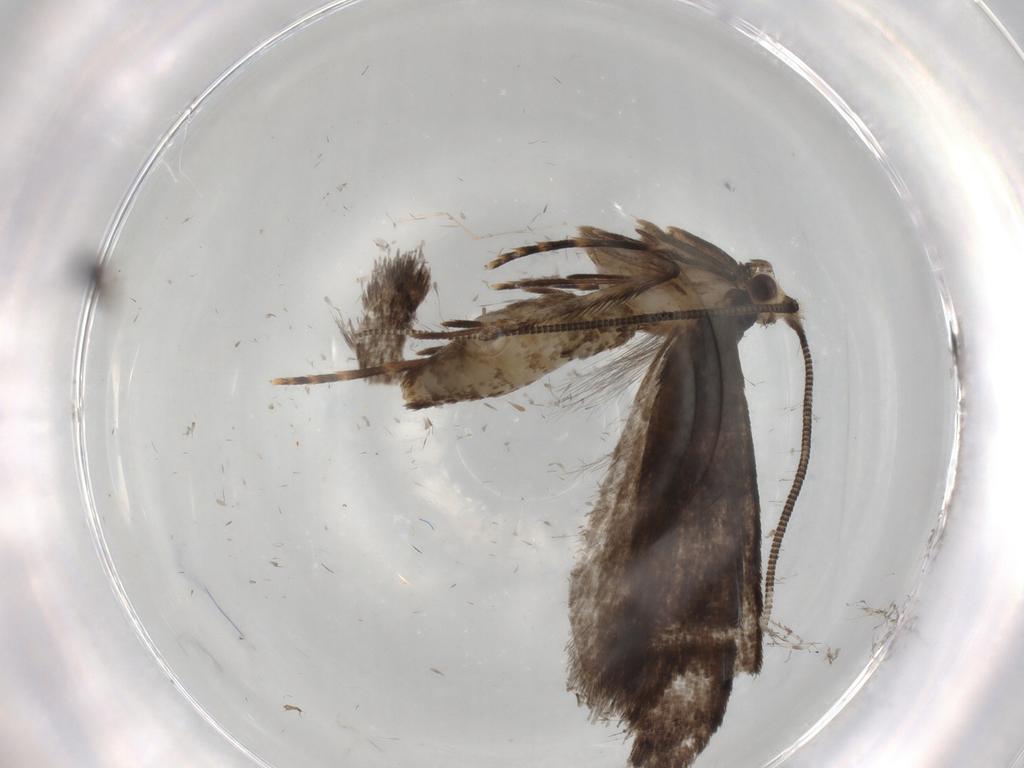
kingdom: Animalia
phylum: Arthropoda
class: Insecta
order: Lepidoptera
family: Tineidae
